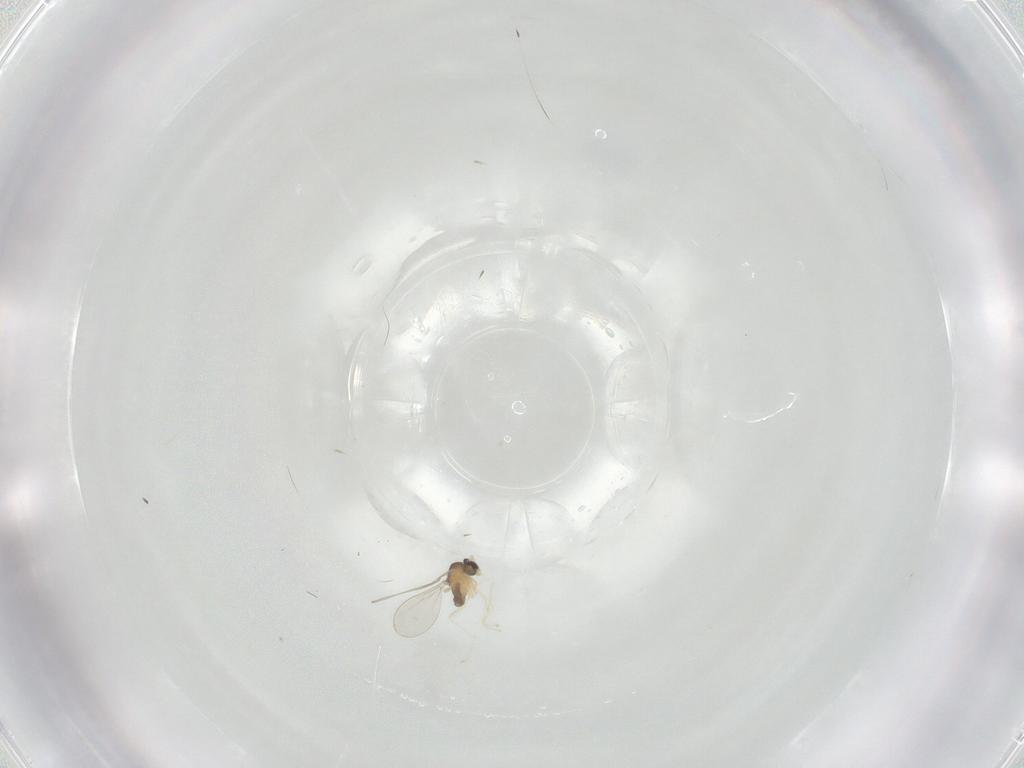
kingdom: Animalia
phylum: Arthropoda
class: Insecta
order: Diptera
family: Cecidomyiidae
